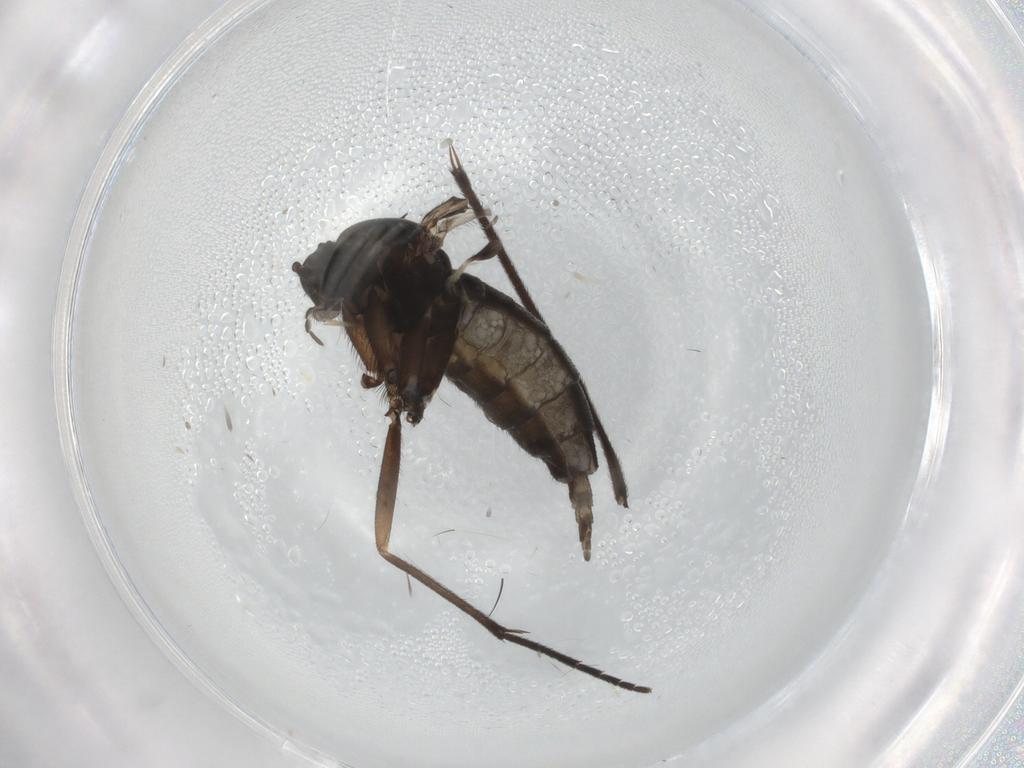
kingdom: Animalia
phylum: Arthropoda
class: Insecta
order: Diptera
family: Sciaridae
